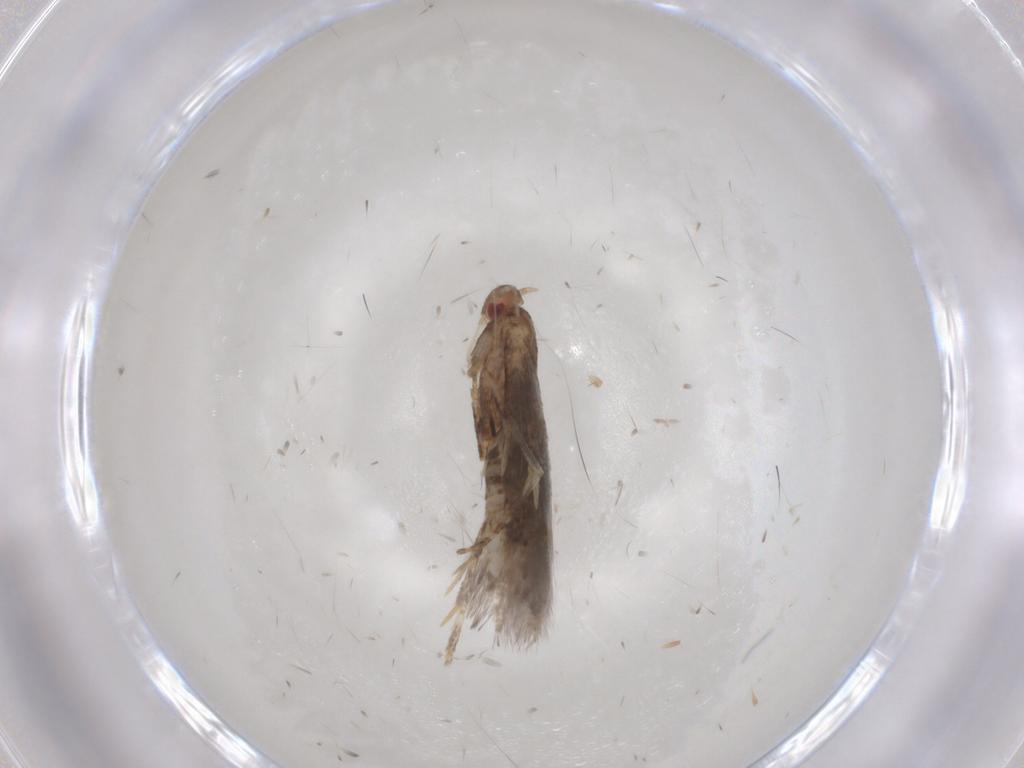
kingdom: Animalia
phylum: Arthropoda
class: Insecta
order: Lepidoptera
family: Momphidae
